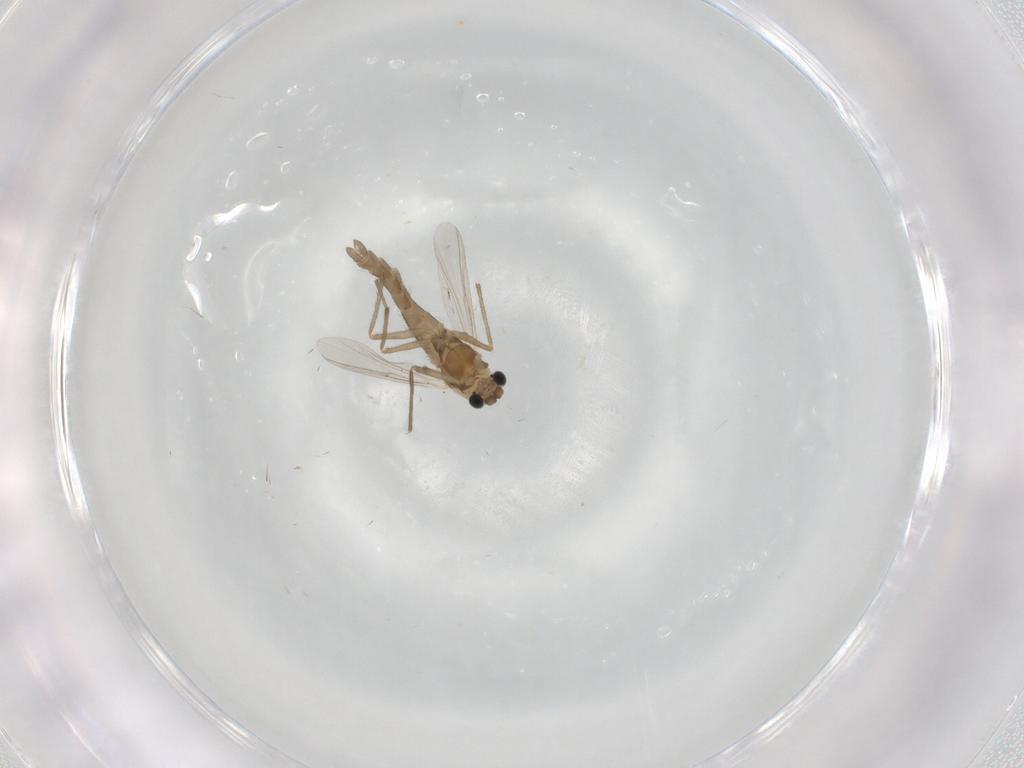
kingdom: Animalia
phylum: Arthropoda
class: Insecta
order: Diptera
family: Chironomidae
